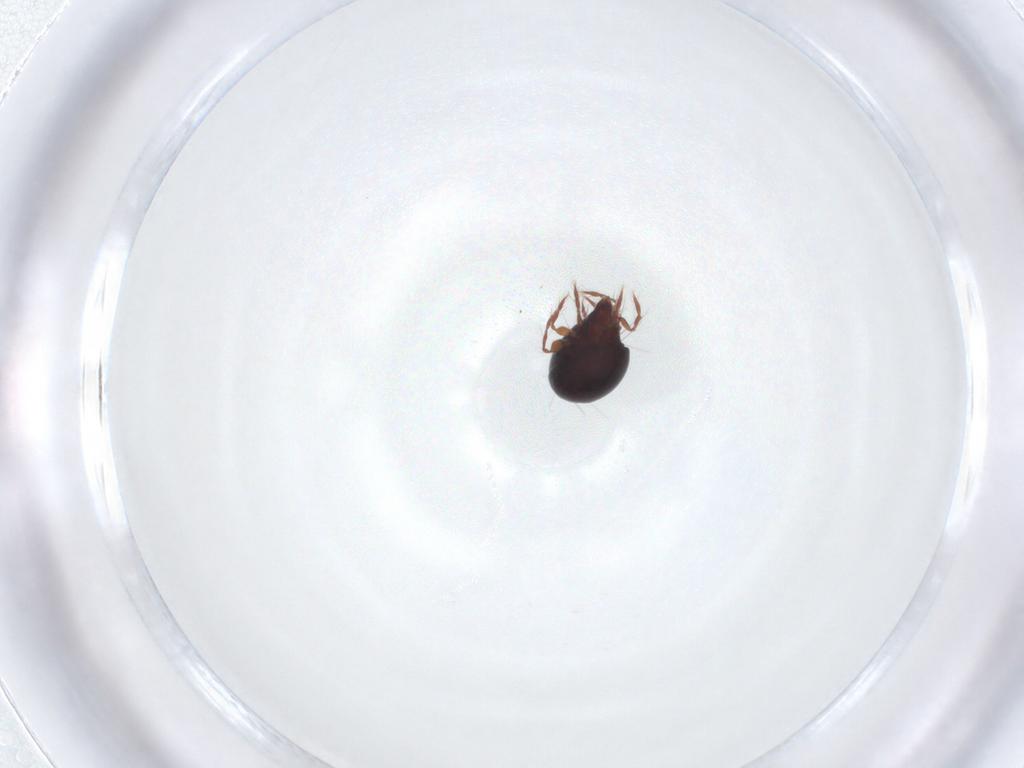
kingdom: Animalia
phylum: Arthropoda
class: Arachnida
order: Sarcoptiformes
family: Ceratoppiidae
